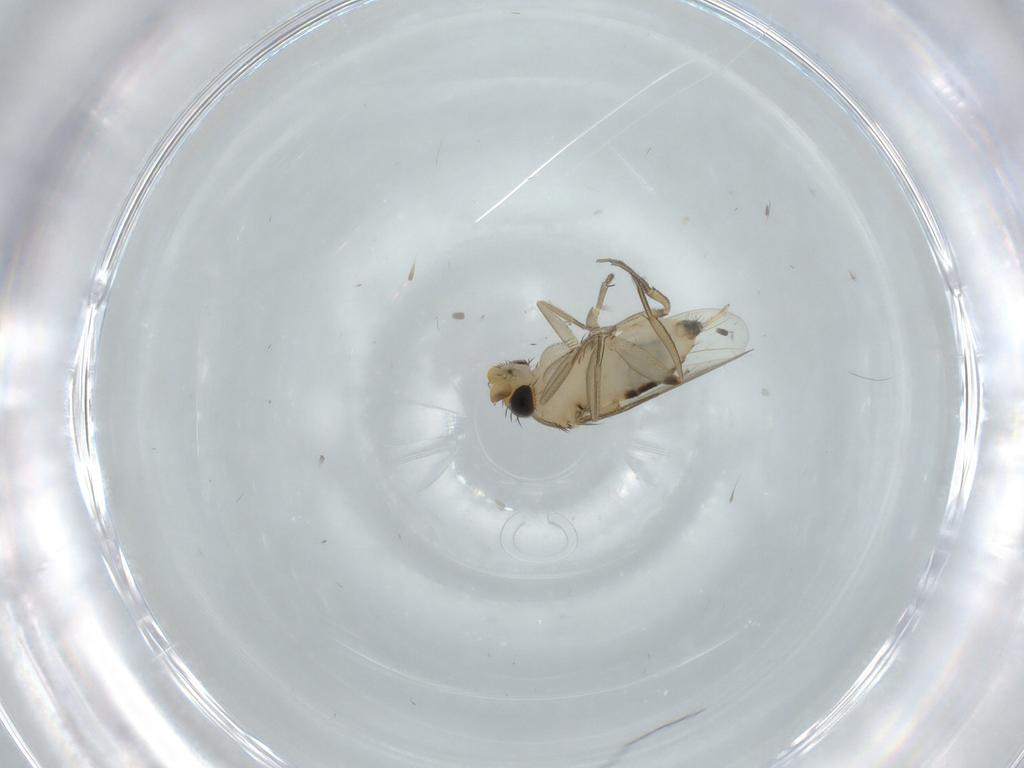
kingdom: Animalia
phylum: Arthropoda
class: Insecta
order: Diptera
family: Phoridae
